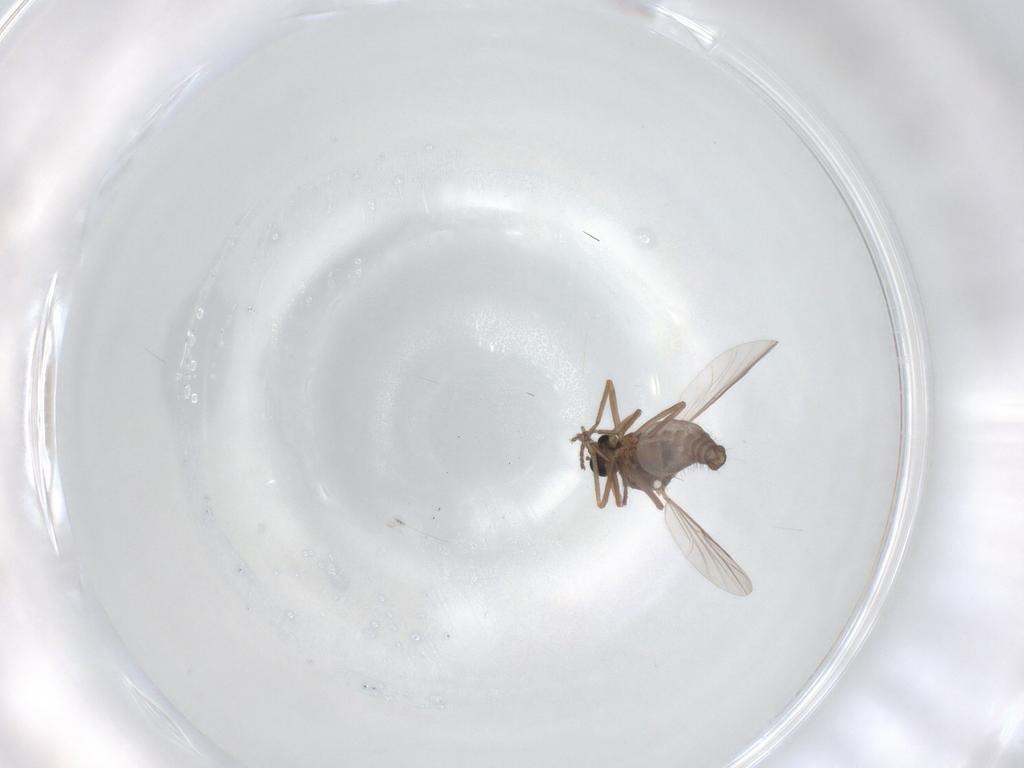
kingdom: Animalia
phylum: Arthropoda
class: Insecta
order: Diptera
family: Ceratopogonidae
